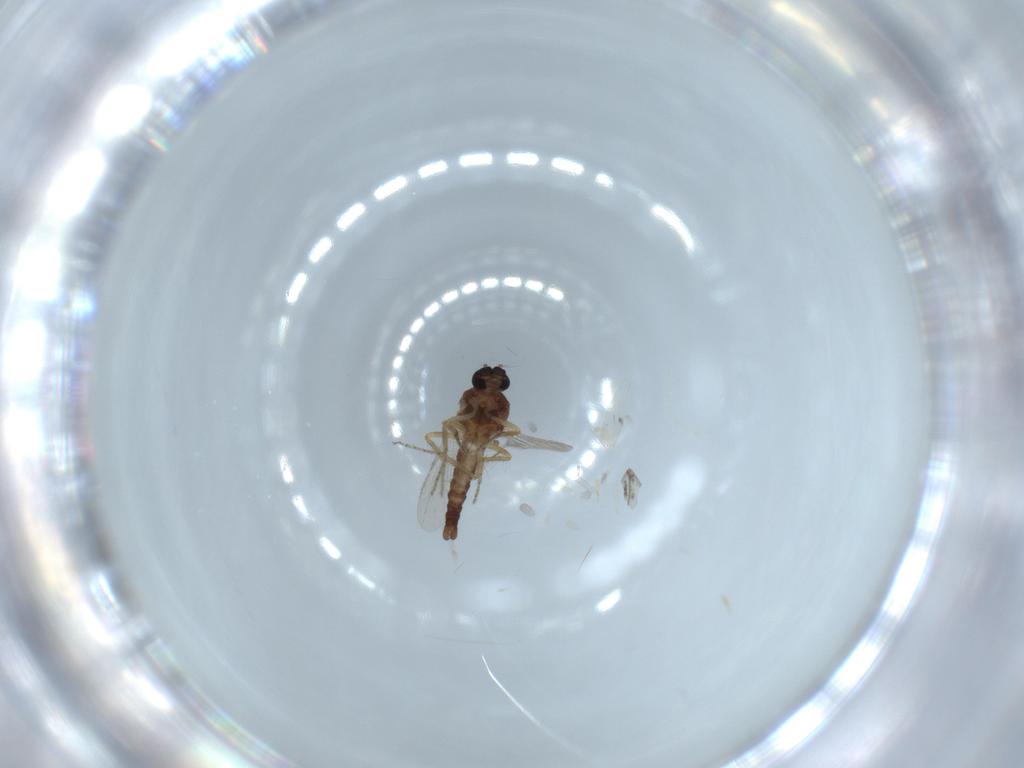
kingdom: Animalia
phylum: Arthropoda
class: Insecta
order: Diptera
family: Ceratopogonidae
